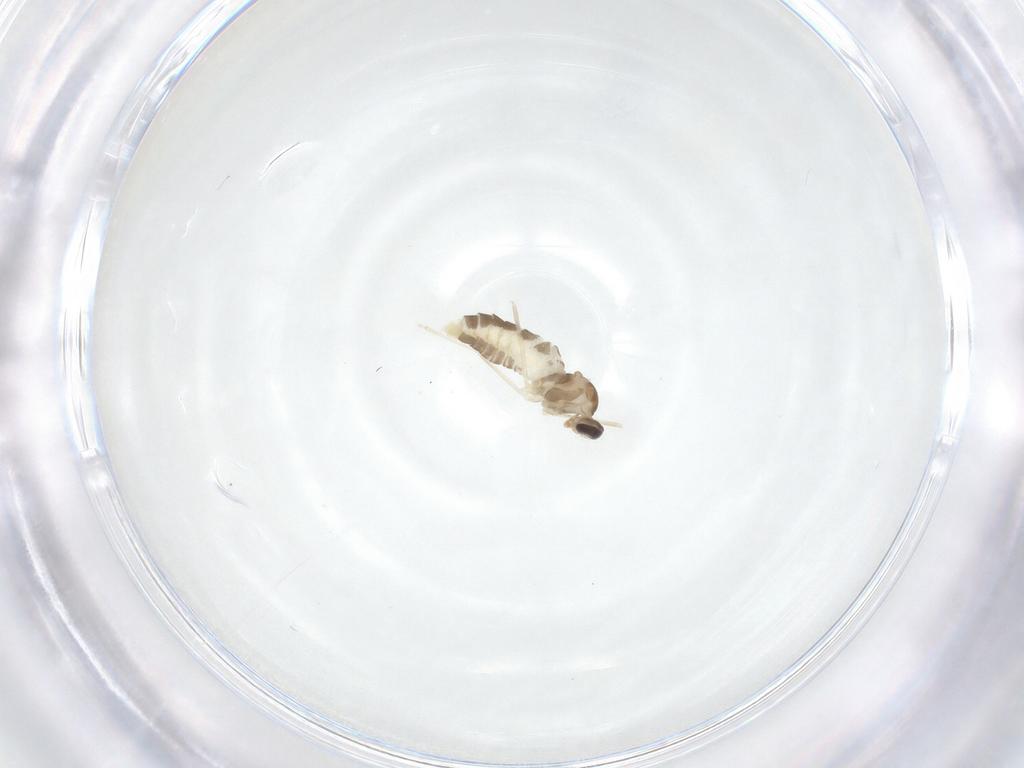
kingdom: Animalia
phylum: Arthropoda
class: Insecta
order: Diptera
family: Cecidomyiidae
